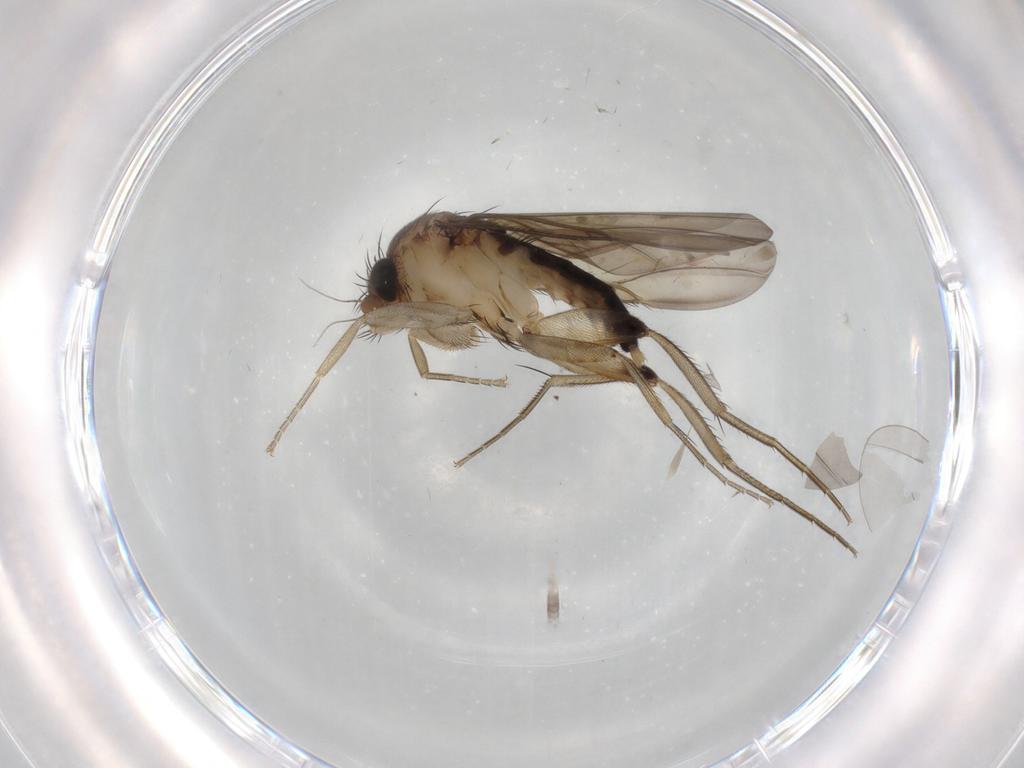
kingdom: Animalia
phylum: Arthropoda
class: Insecta
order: Diptera
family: Phoridae
